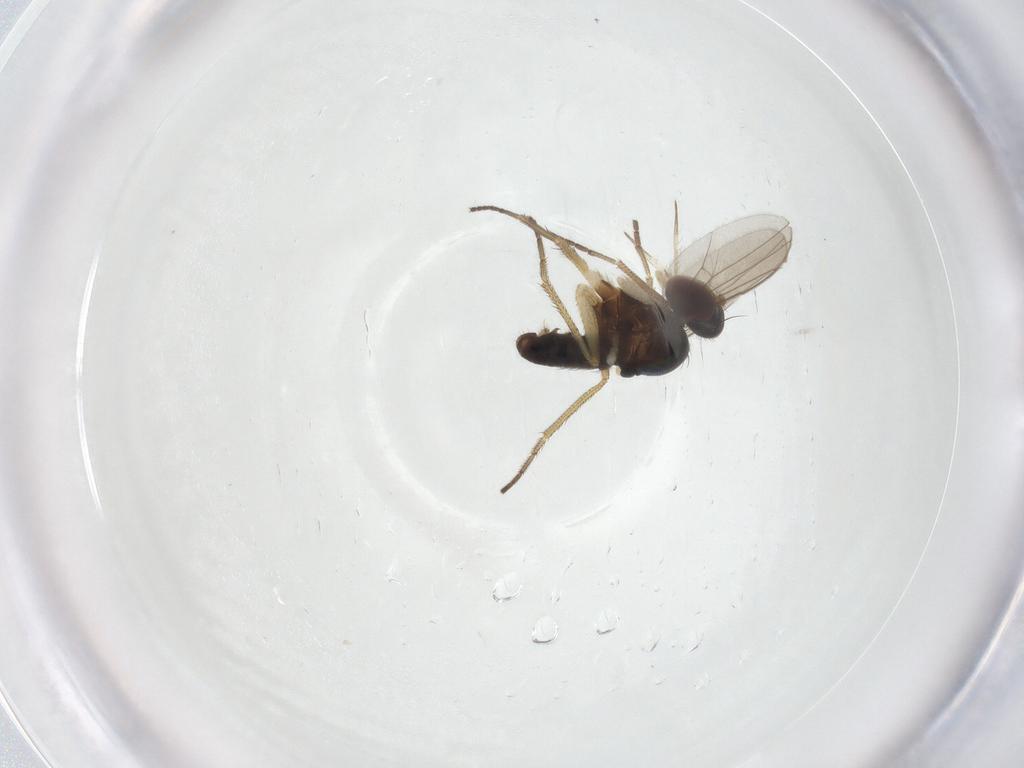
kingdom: Animalia
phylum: Arthropoda
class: Insecta
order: Diptera
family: Dolichopodidae
